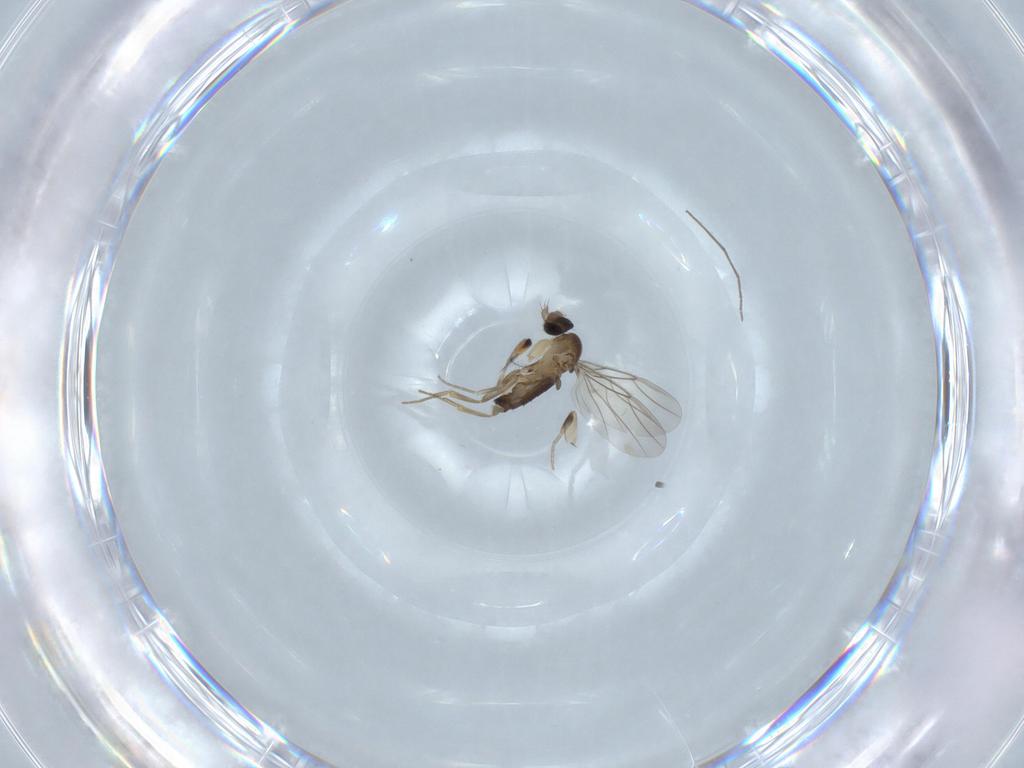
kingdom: Animalia
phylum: Arthropoda
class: Insecta
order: Diptera
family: Phoridae
